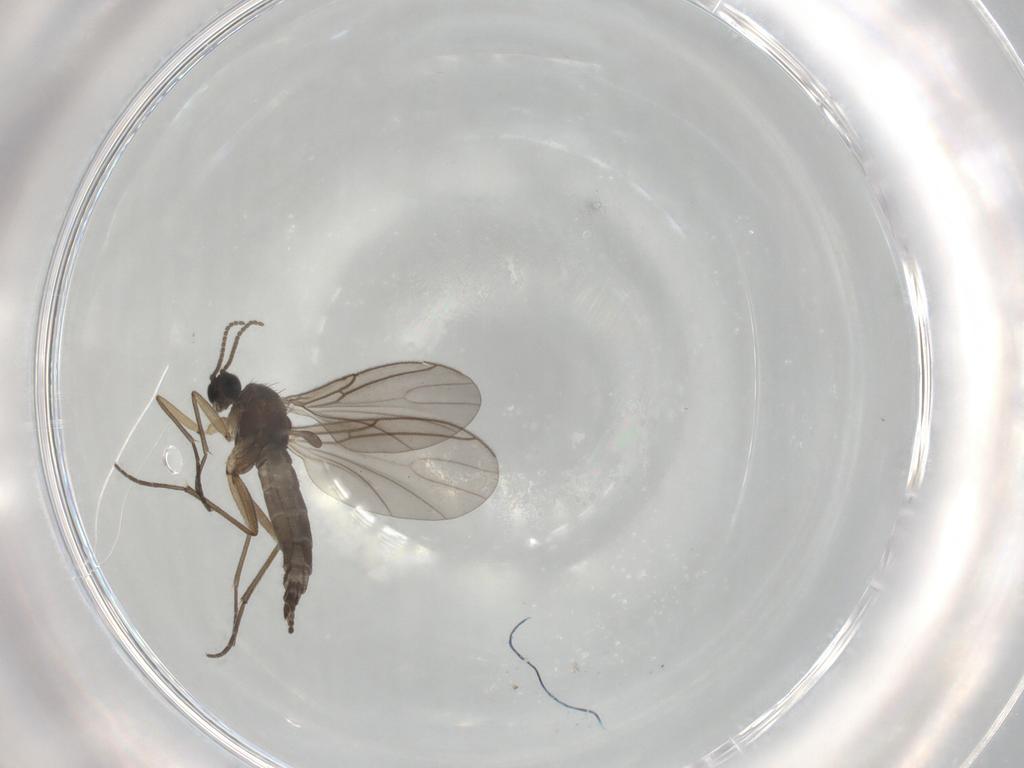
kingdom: Animalia
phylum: Arthropoda
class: Insecta
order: Diptera
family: Sciaridae
